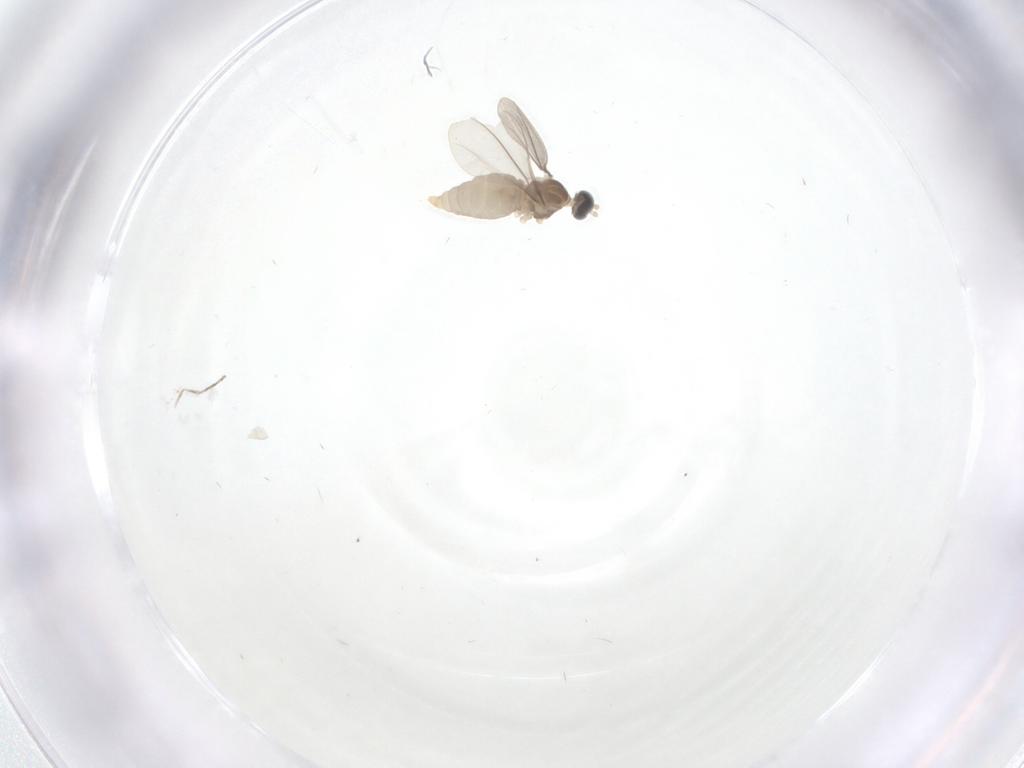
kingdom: Animalia
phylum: Arthropoda
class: Insecta
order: Diptera
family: Cecidomyiidae
